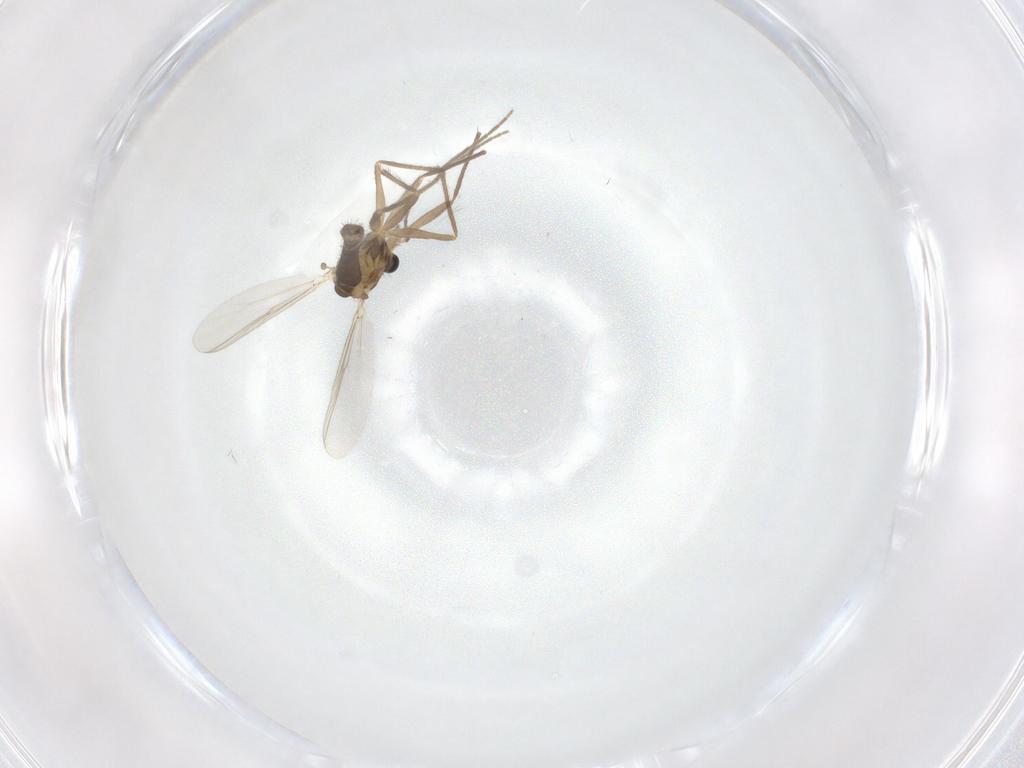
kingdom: Animalia
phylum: Arthropoda
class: Insecta
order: Diptera
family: Chironomidae
